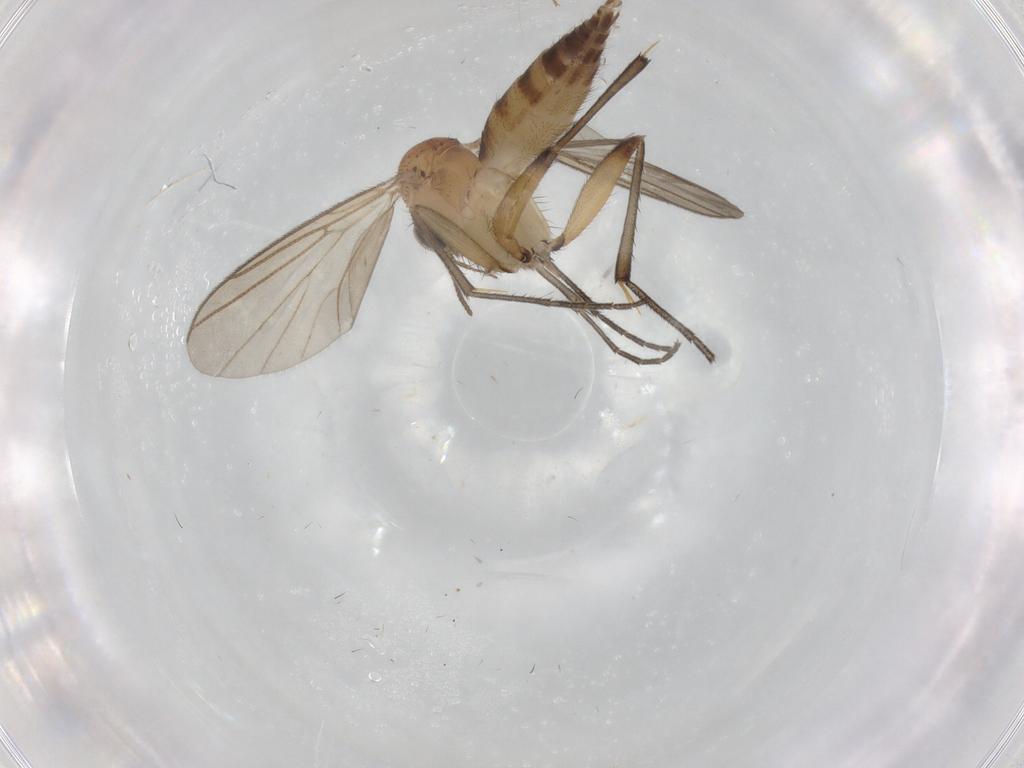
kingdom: Animalia
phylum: Arthropoda
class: Insecta
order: Diptera
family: Mycetophilidae
